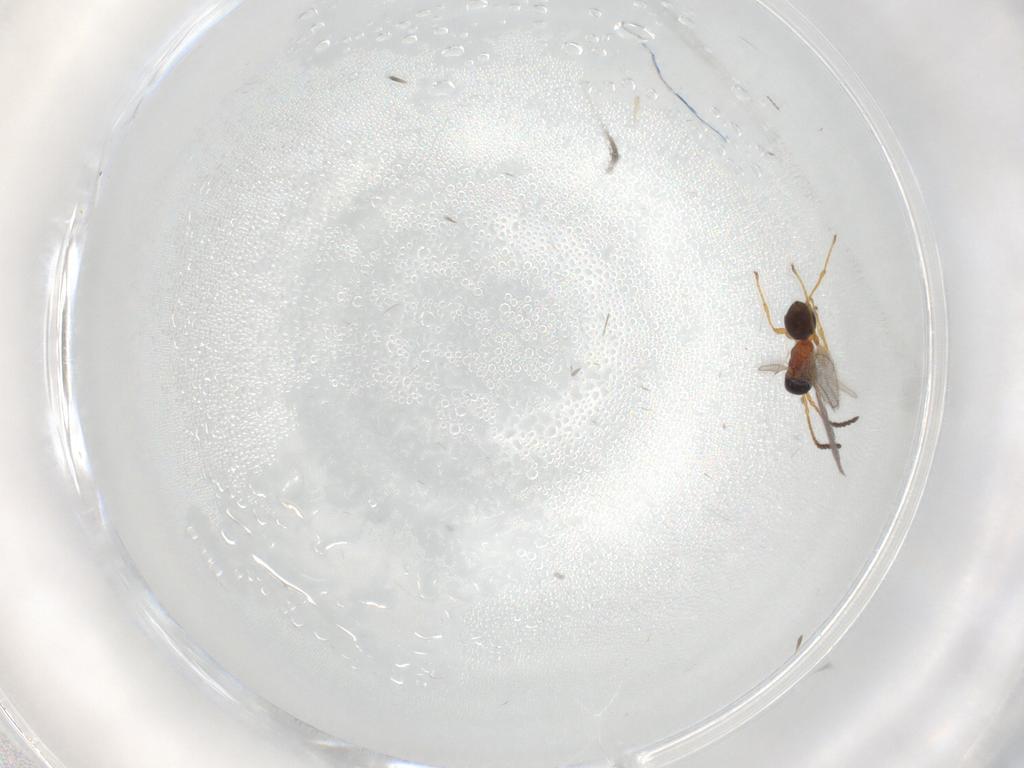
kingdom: Animalia
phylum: Arthropoda
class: Insecta
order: Hymenoptera
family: Diapriidae
